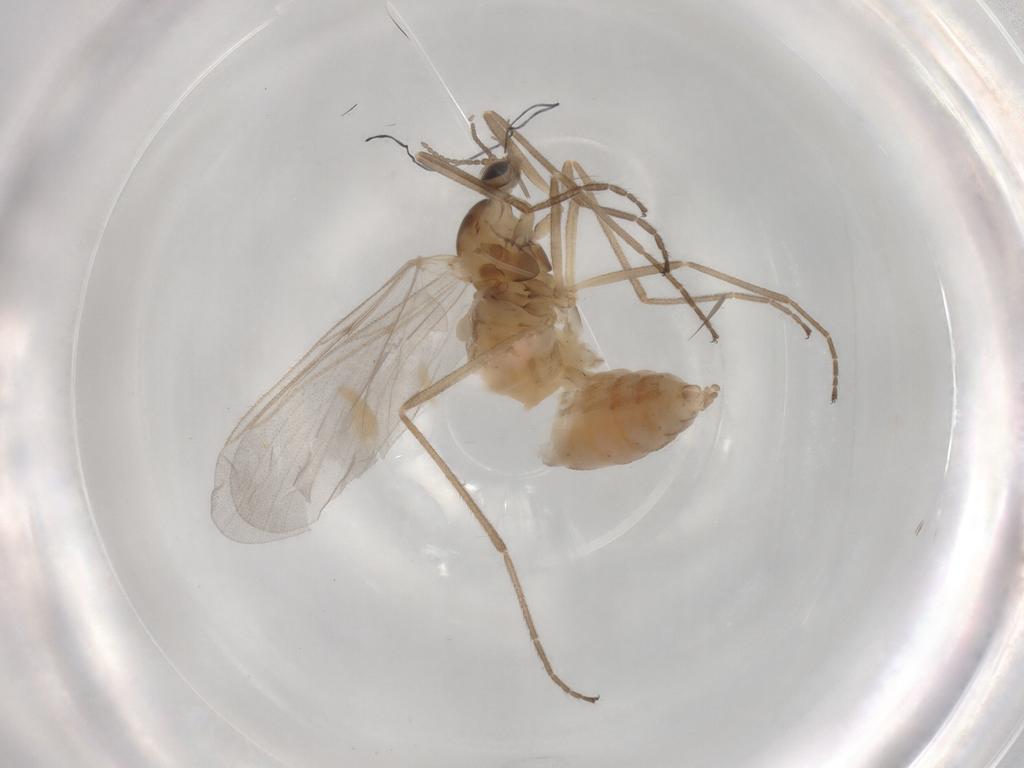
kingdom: Animalia
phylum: Arthropoda
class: Insecta
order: Diptera
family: Cecidomyiidae
